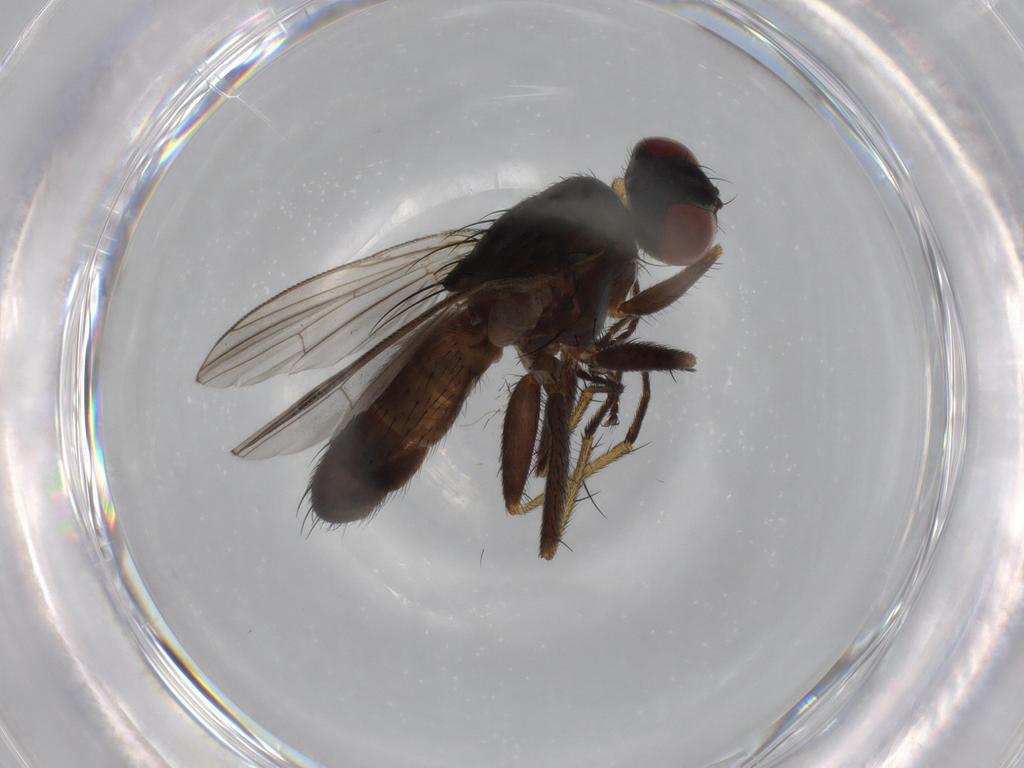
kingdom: Animalia
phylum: Arthropoda
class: Insecta
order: Diptera
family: Muscidae
